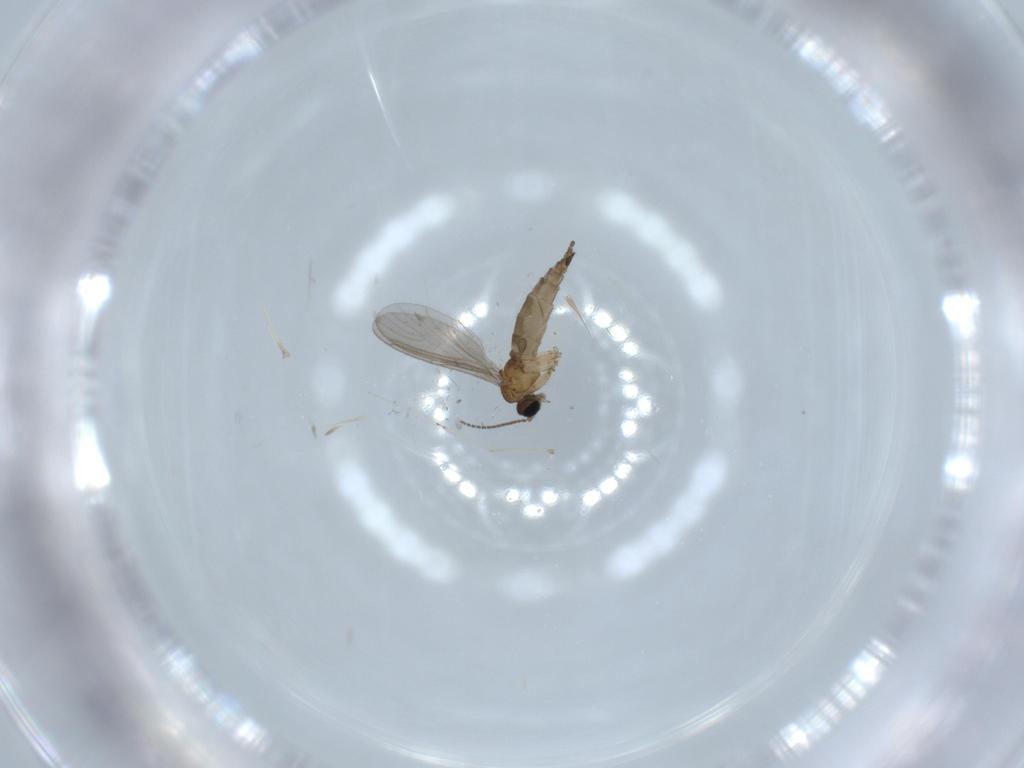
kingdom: Animalia
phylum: Arthropoda
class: Insecta
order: Diptera
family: Sciaridae
